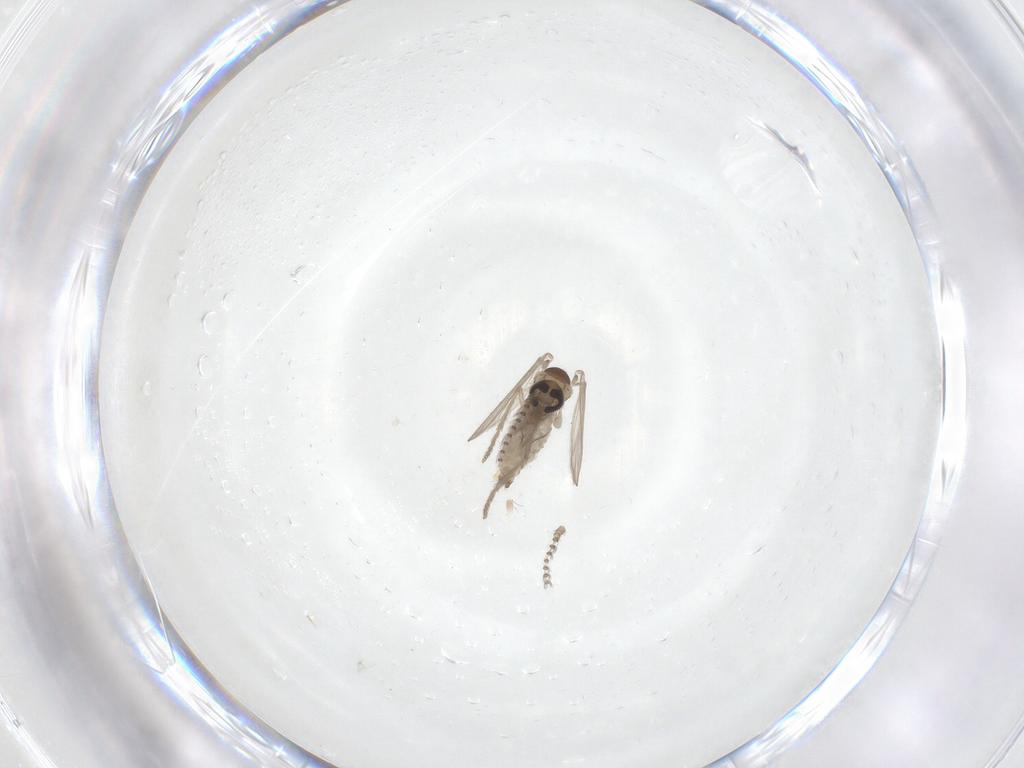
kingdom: Animalia
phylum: Arthropoda
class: Insecta
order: Diptera
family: Psychodidae
